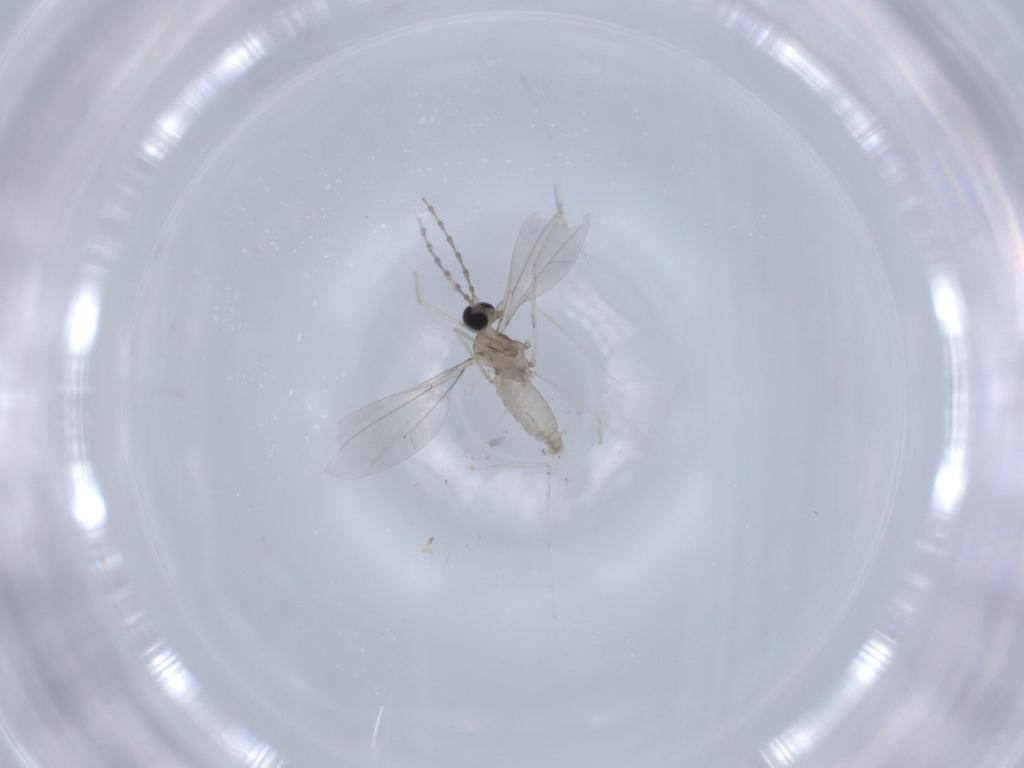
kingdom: Animalia
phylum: Arthropoda
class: Insecta
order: Diptera
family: Cecidomyiidae
